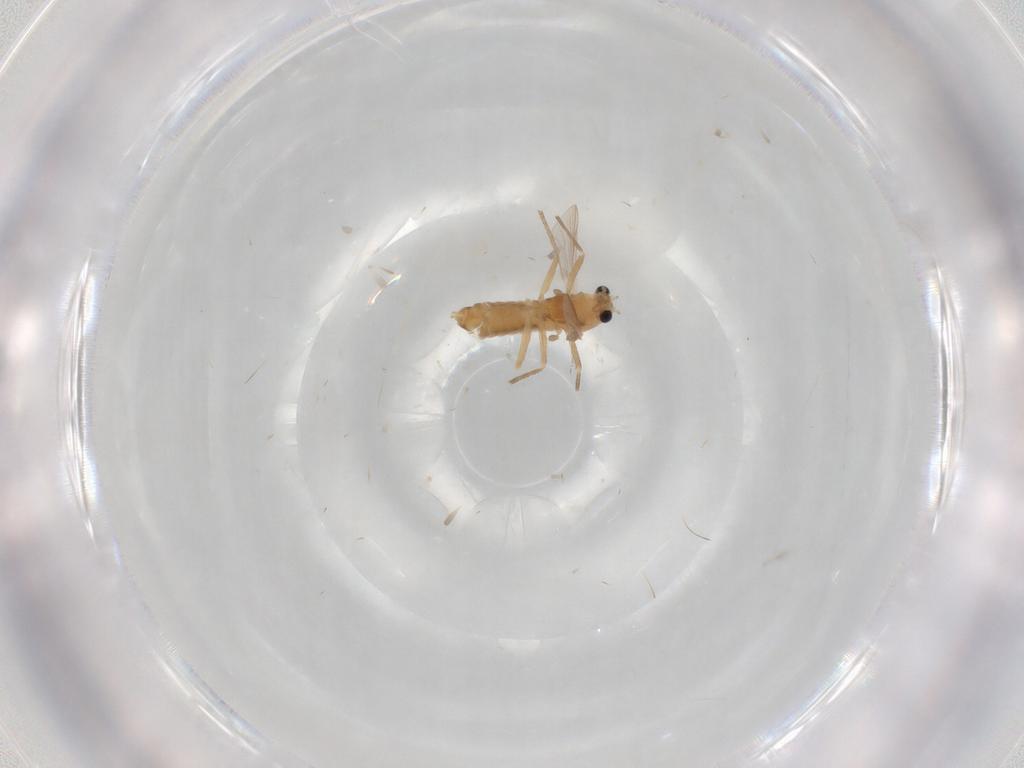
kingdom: Animalia
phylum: Arthropoda
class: Insecta
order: Diptera
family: Chironomidae
